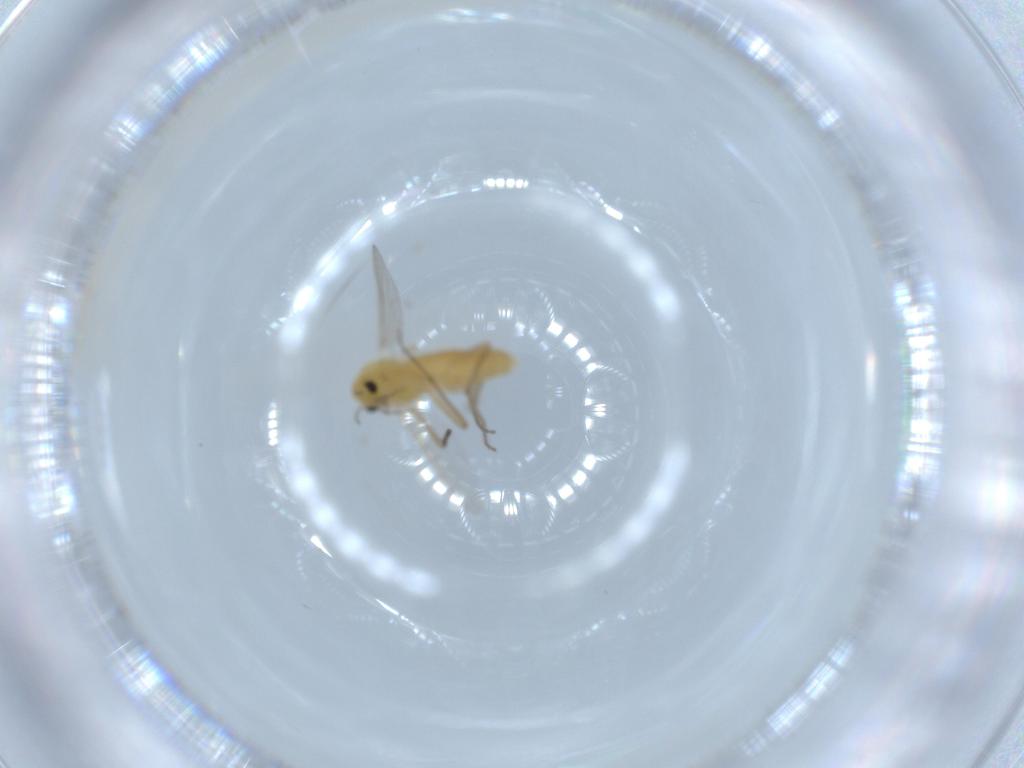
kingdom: Animalia
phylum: Arthropoda
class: Insecta
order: Diptera
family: Chironomidae
